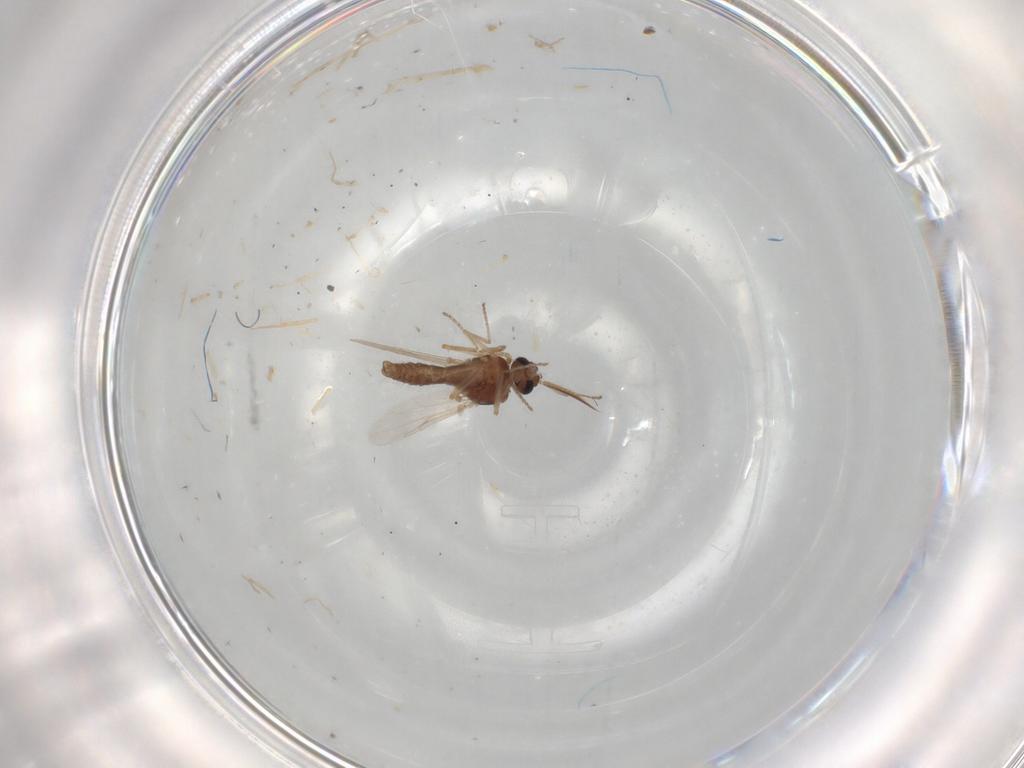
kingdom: Animalia
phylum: Arthropoda
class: Insecta
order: Diptera
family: Ceratopogonidae
